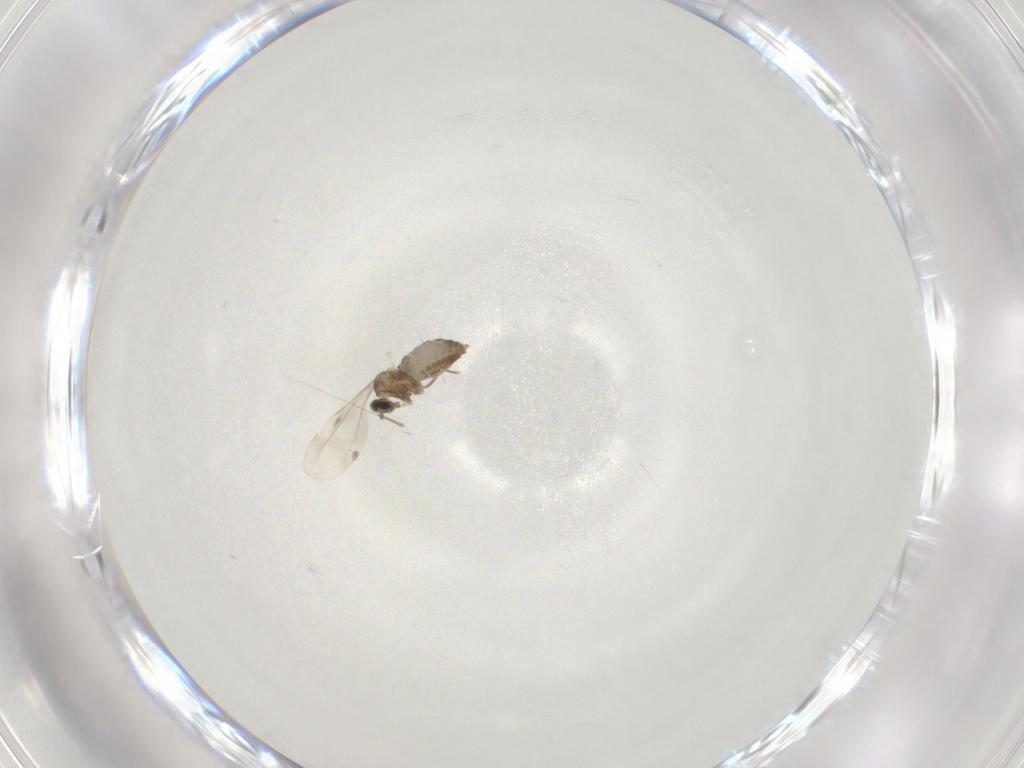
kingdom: Animalia
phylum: Arthropoda
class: Insecta
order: Diptera
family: Cecidomyiidae
